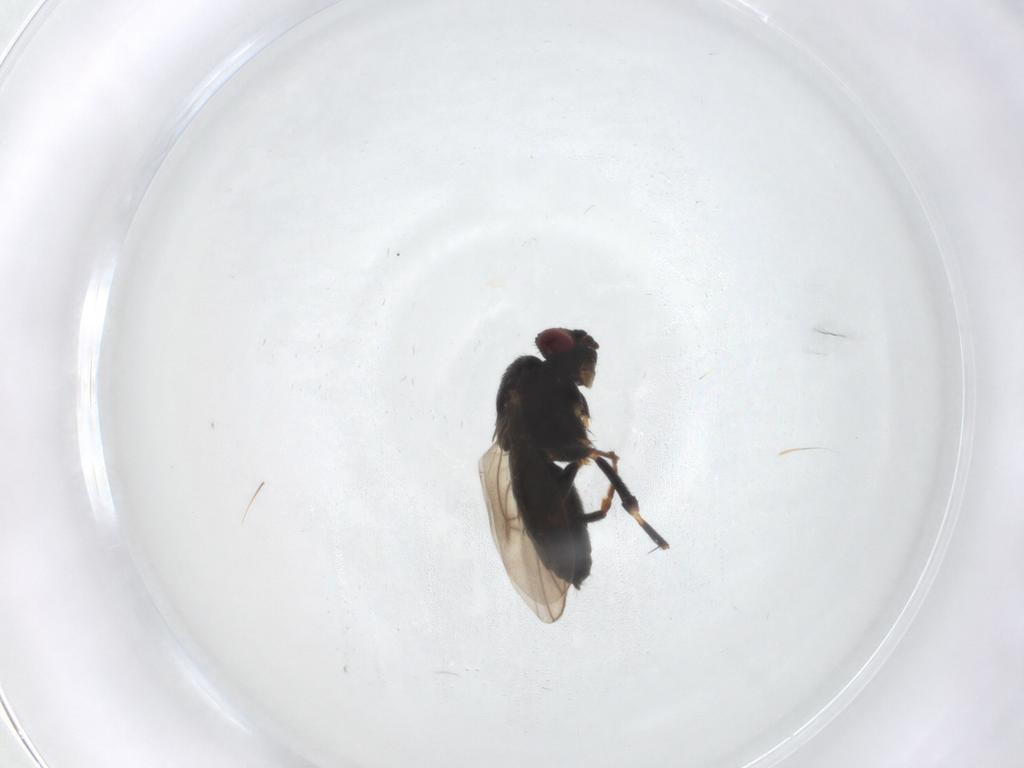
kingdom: Animalia
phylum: Arthropoda
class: Insecta
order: Diptera
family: Sphaeroceridae
